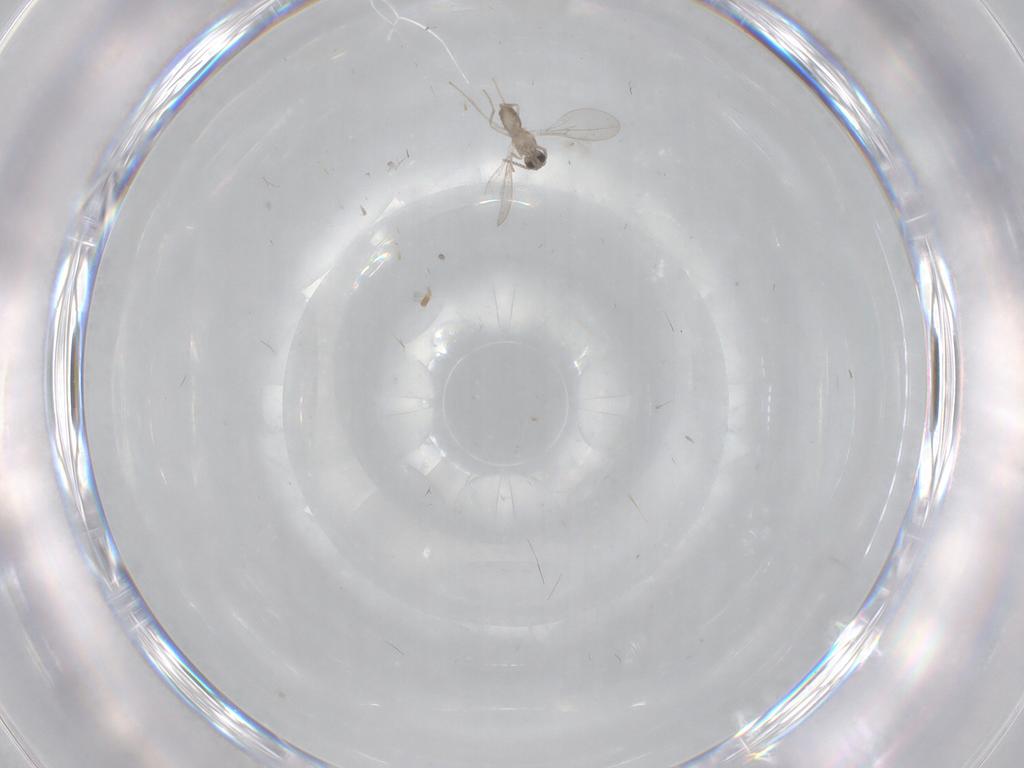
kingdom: Animalia
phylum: Arthropoda
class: Insecta
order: Diptera
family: Cecidomyiidae
